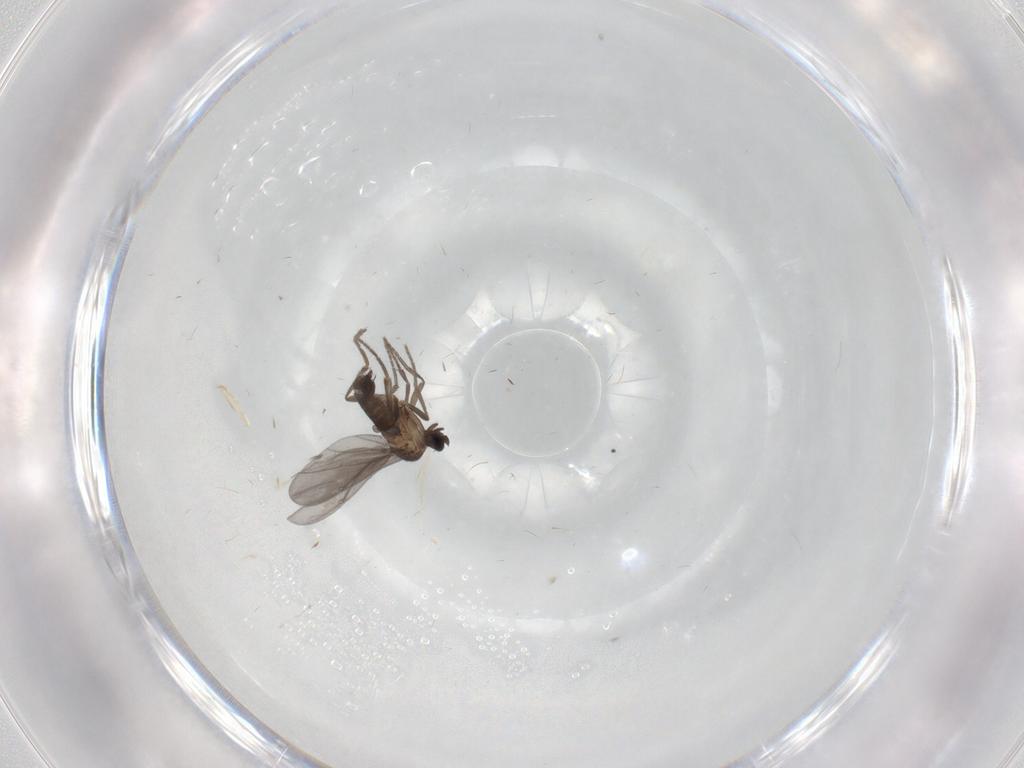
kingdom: Animalia
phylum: Arthropoda
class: Insecta
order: Diptera
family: Phoridae
